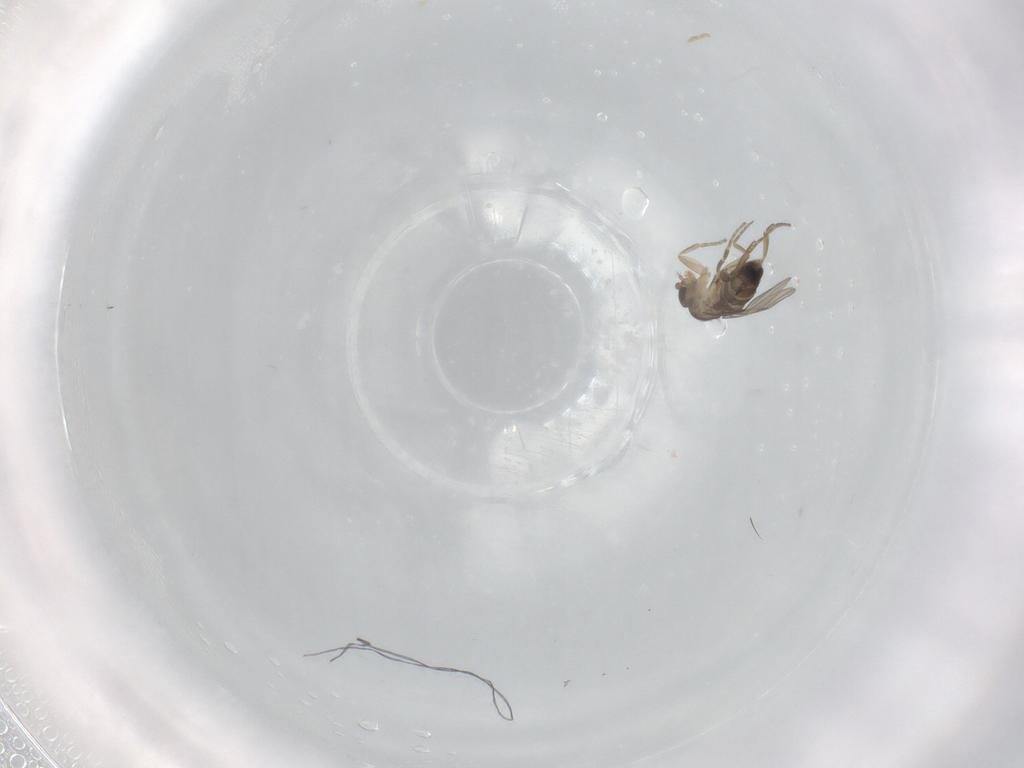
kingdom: Animalia
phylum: Arthropoda
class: Insecta
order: Diptera
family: Phoridae
